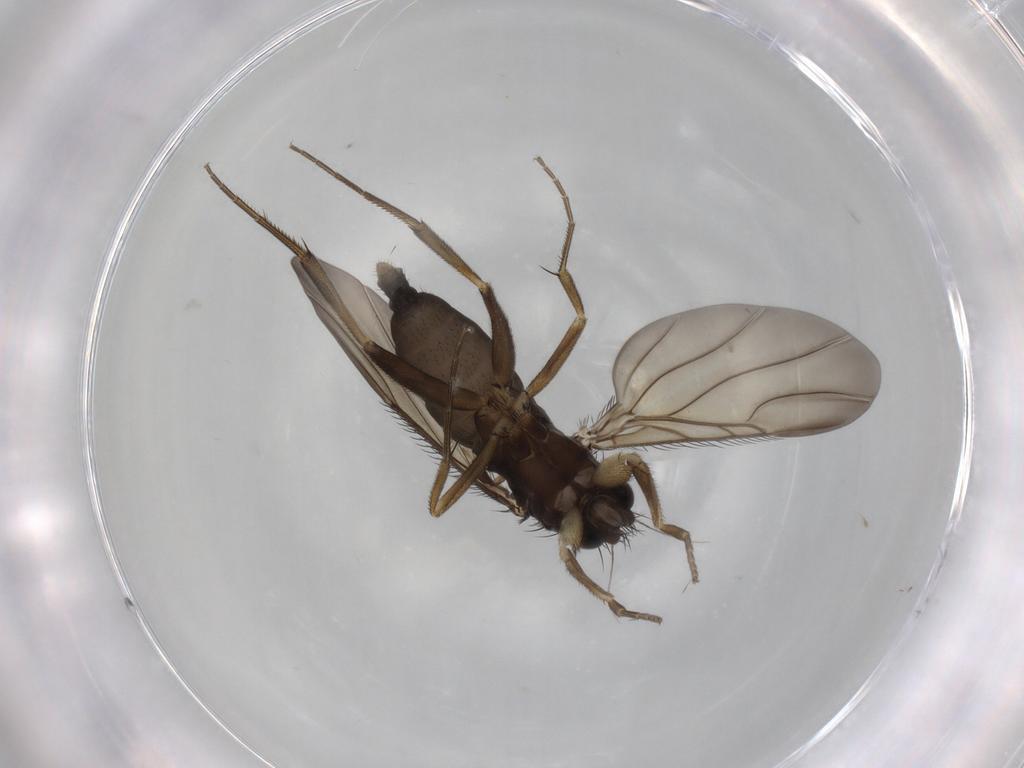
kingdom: Animalia
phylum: Arthropoda
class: Insecta
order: Diptera
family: Phoridae
